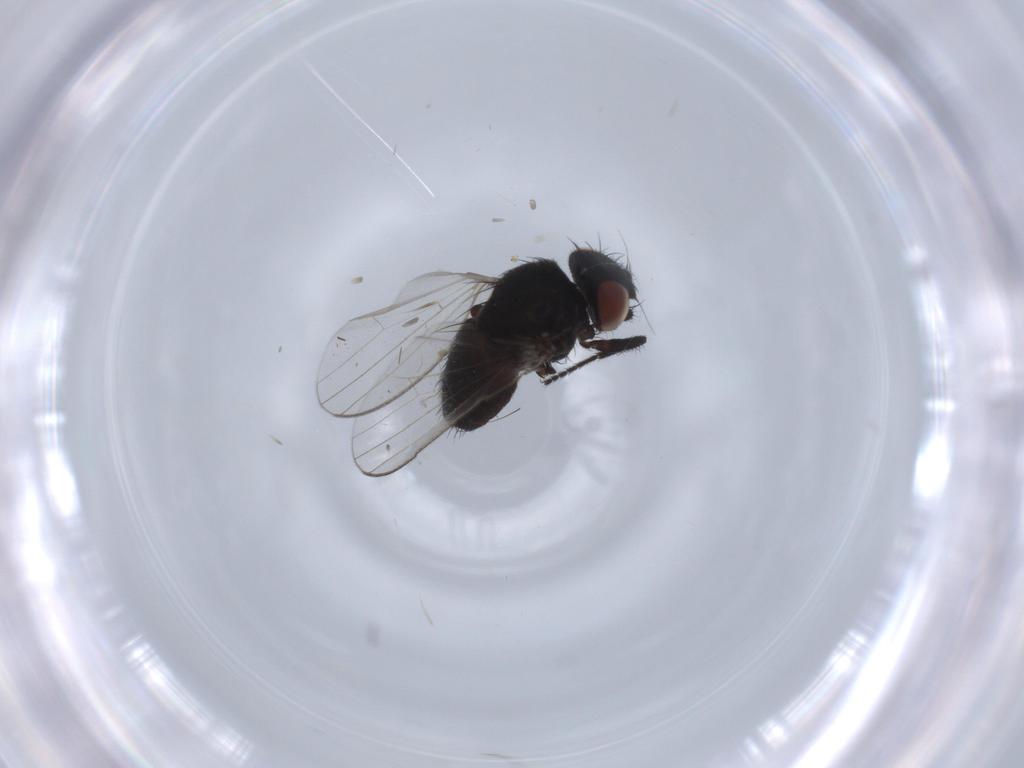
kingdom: Animalia
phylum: Arthropoda
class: Insecta
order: Diptera
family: Milichiidae
